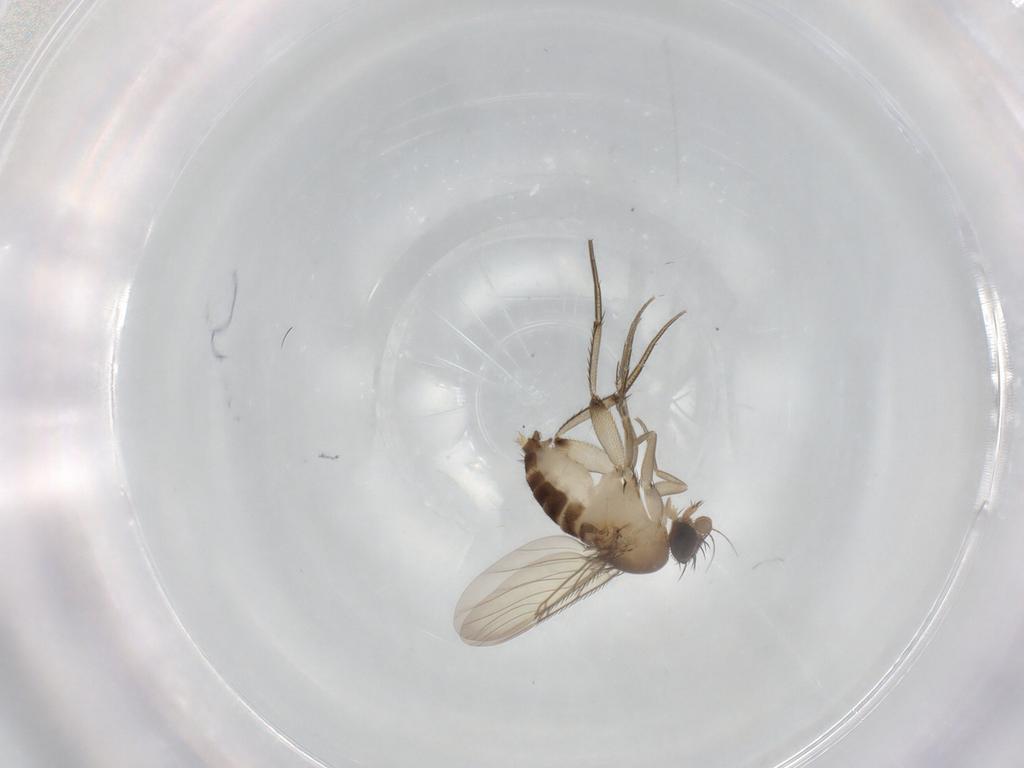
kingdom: Animalia
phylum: Arthropoda
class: Insecta
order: Diptera
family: Phoridae
